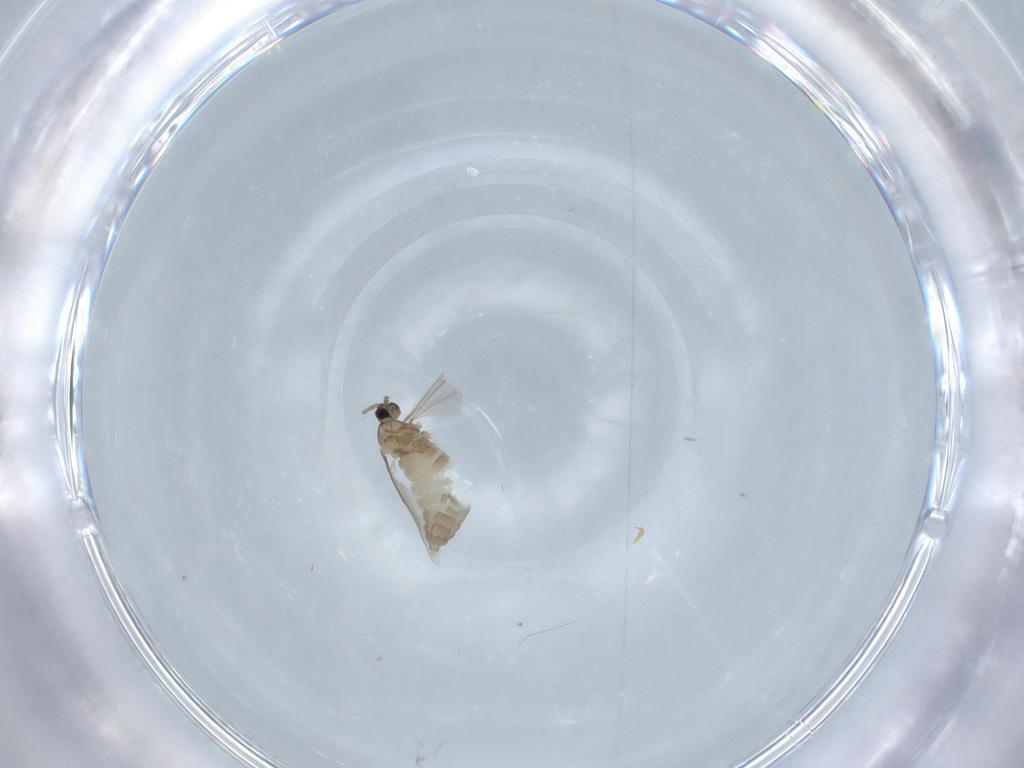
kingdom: Animalia
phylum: Arthropoda
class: Insecta
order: Diptera
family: Cecidomyiidae
